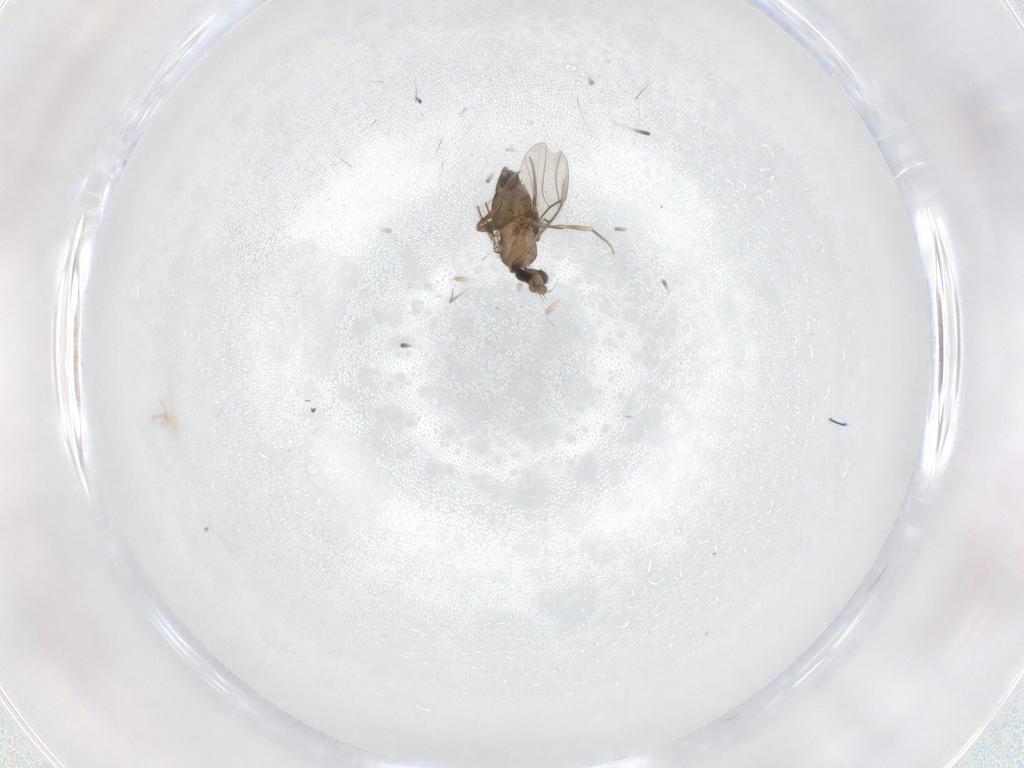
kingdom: Animalia
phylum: Arthropoda
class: Insecta
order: Diptera
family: Phoridae
